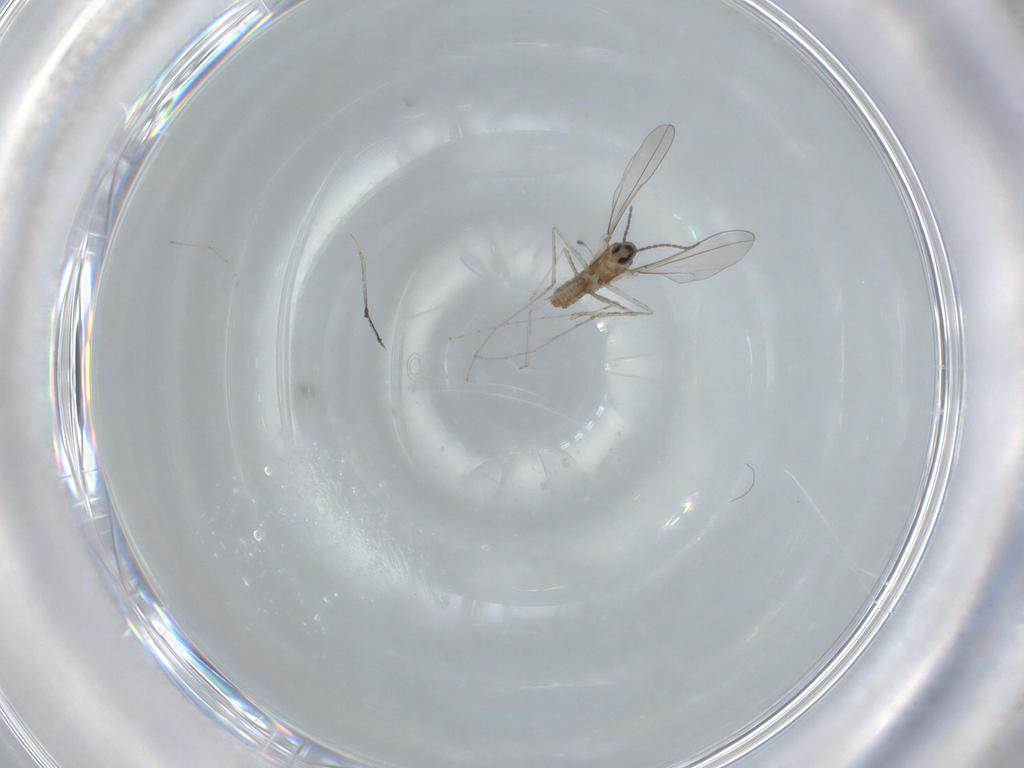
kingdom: Animalia
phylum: Arthropoda
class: Insecta
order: Diptera
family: Cecidomyiidae
